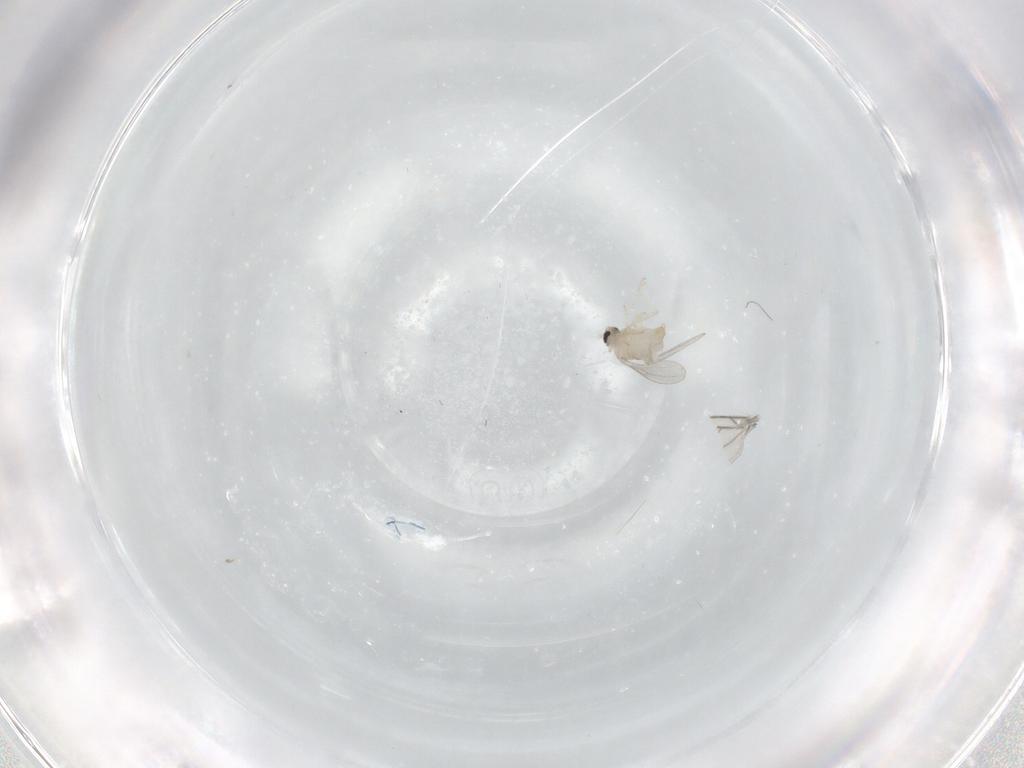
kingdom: Animalia
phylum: Arthropoda
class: Insecta
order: Diptera
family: Cecidomyiidae
